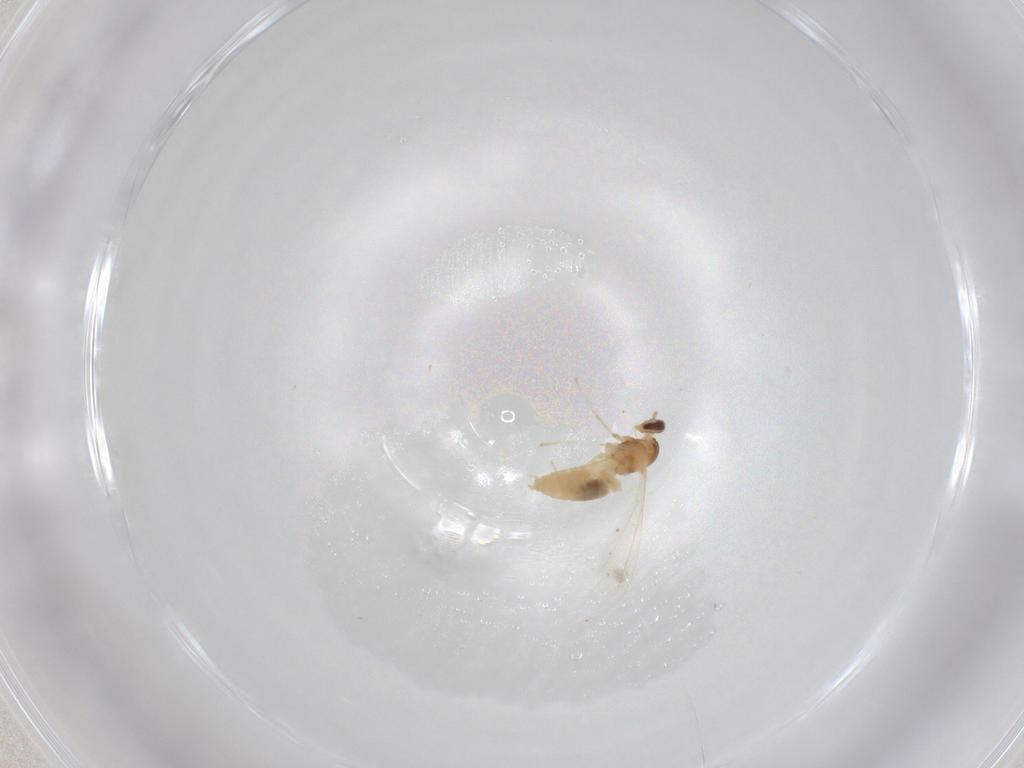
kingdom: Animalia
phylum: Arthropoda
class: Insecta
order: Diptera
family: Cecidomyiidae
